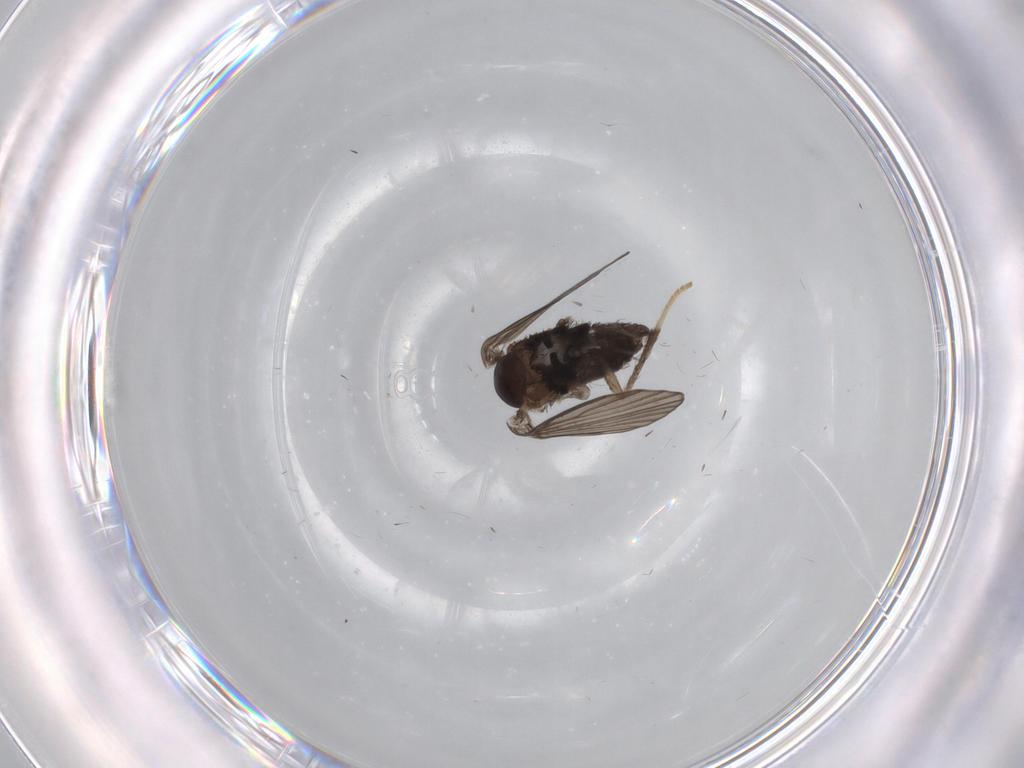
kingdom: Animalia
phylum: Arthropoda
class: Insecta
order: Diptera
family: Psychodidae
